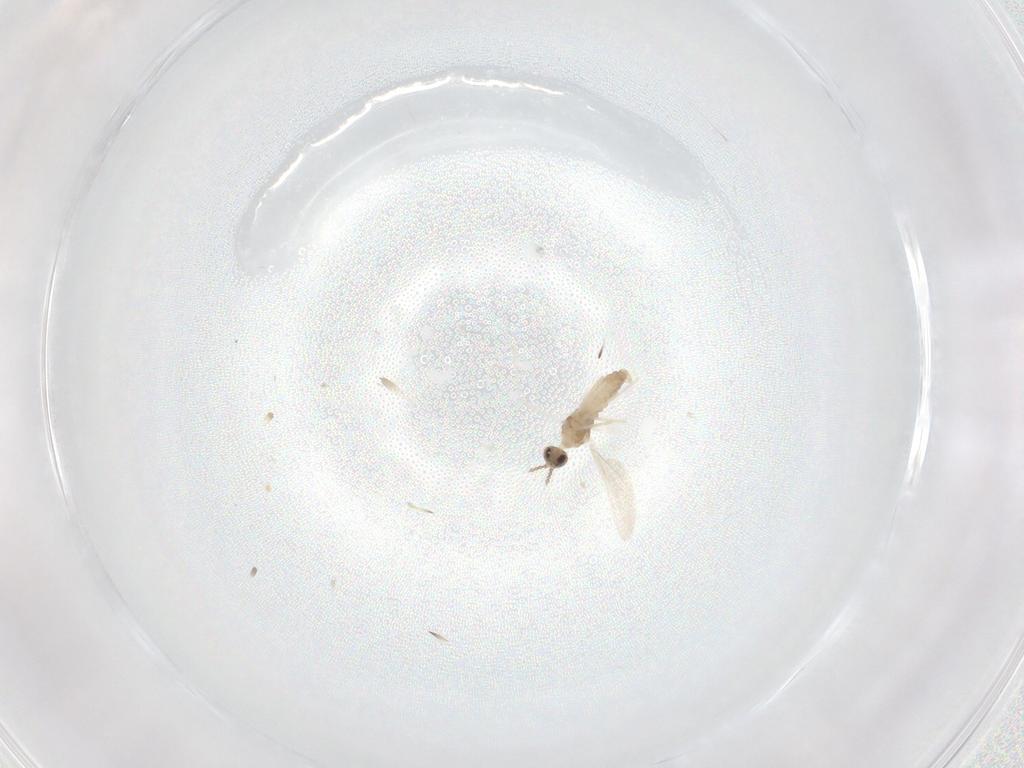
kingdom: Animalia
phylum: Arthropoda
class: Insecta
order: Diptera
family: Cecidomyiidae
